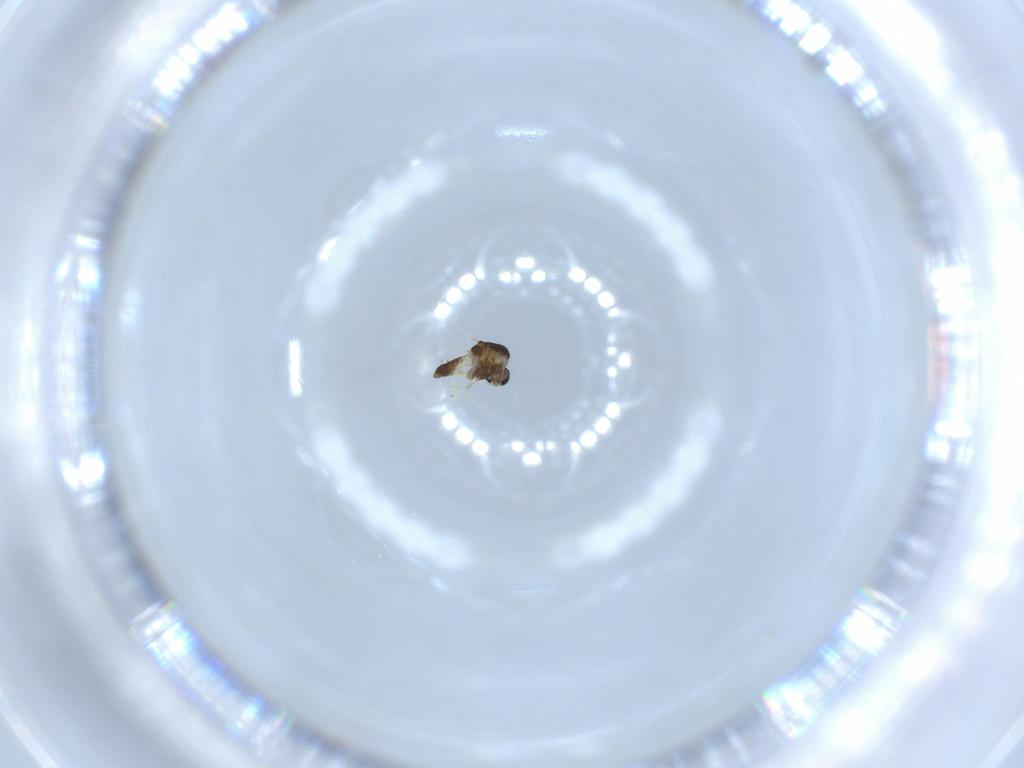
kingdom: Animalia
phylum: Arthropoda
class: Insecta
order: Diptera
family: Chironomidae
